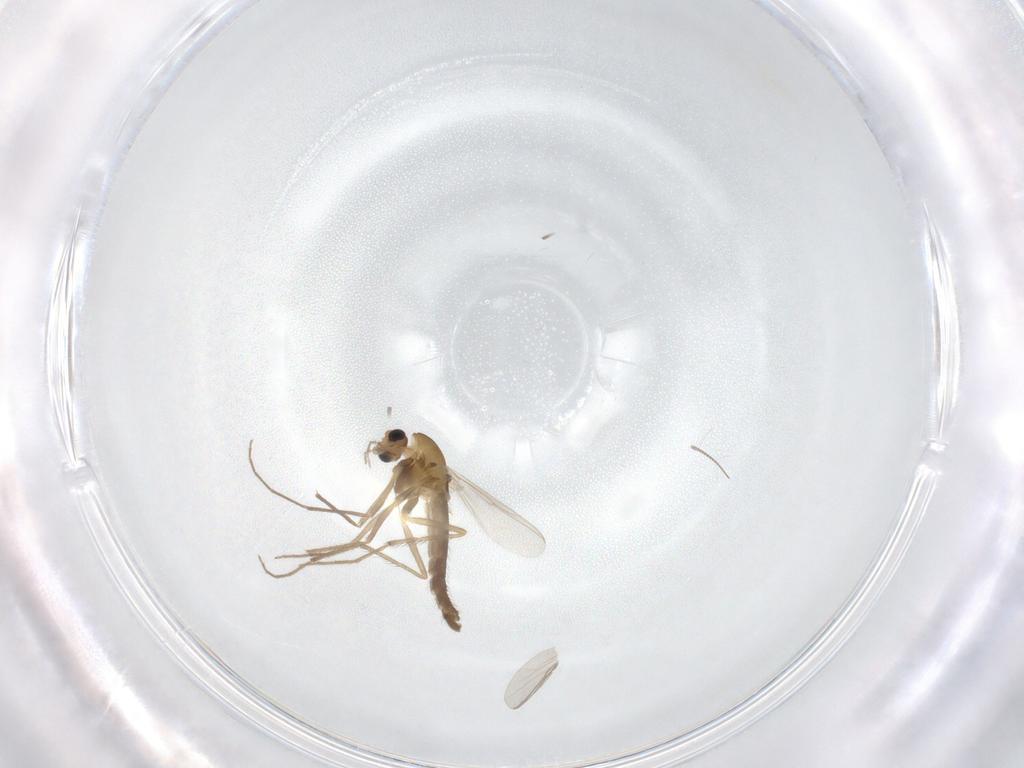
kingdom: Animalia
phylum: Arthropoda
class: Insecta
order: Diptera
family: Chironomidae
